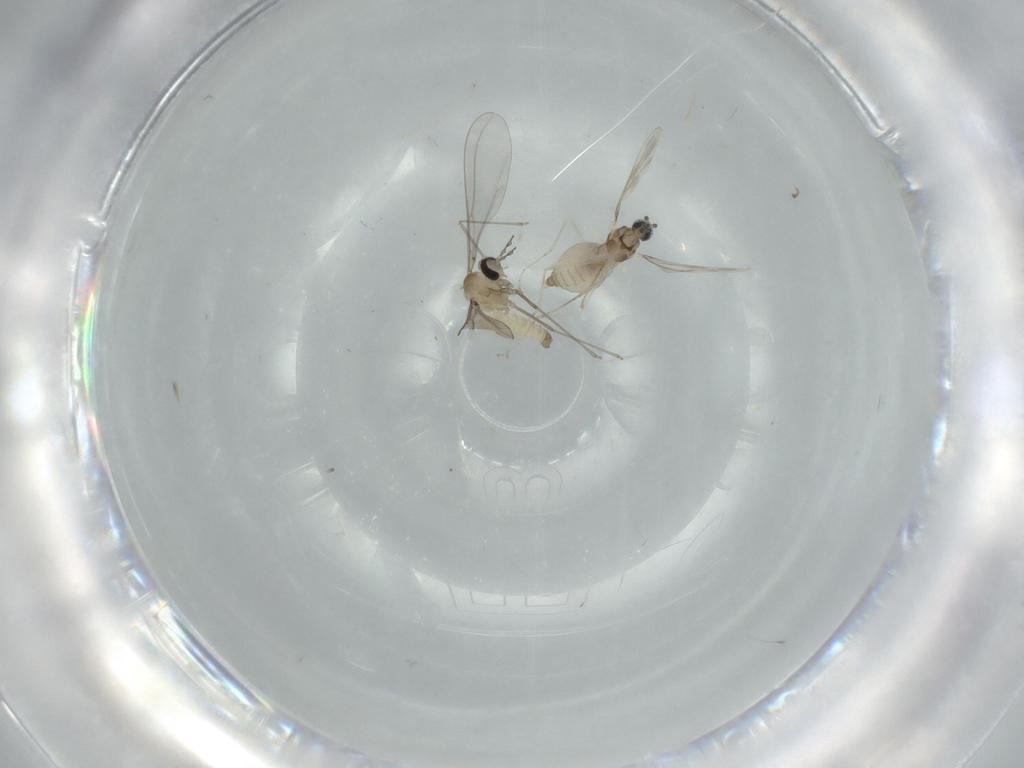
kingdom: Animalia
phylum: Arthropoda
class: Insecta
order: Diptera
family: Cecidomyiidae
